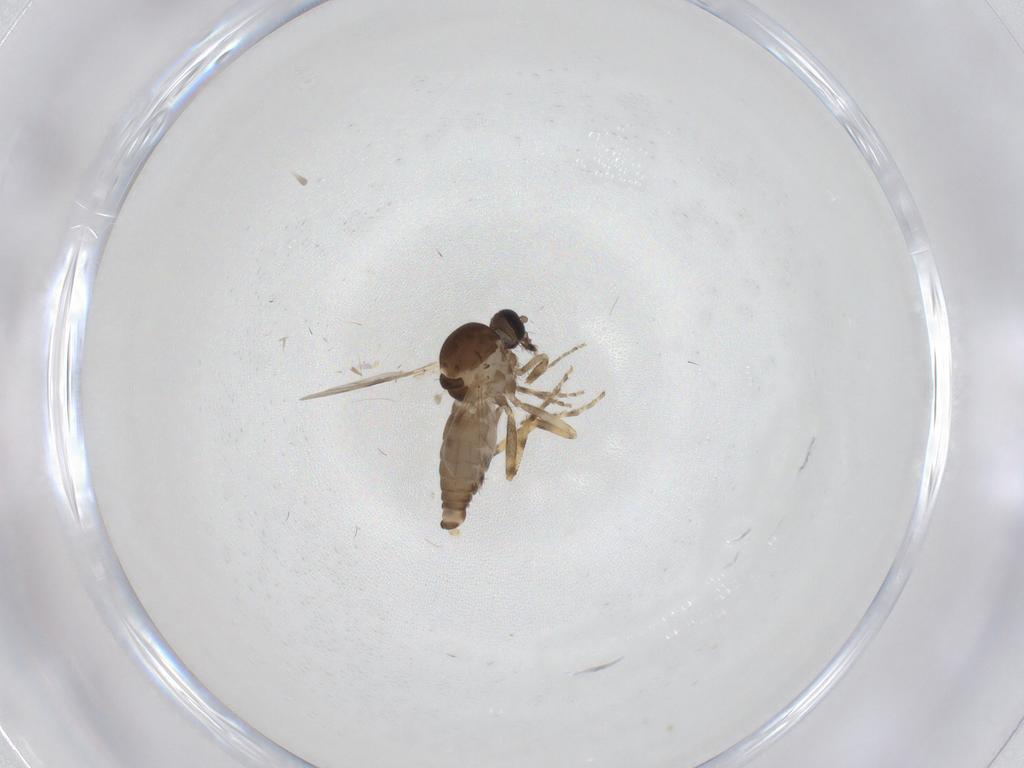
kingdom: Animalia
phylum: Arthropoda
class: Insecta
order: Diptera
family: Ceratopogonidae
